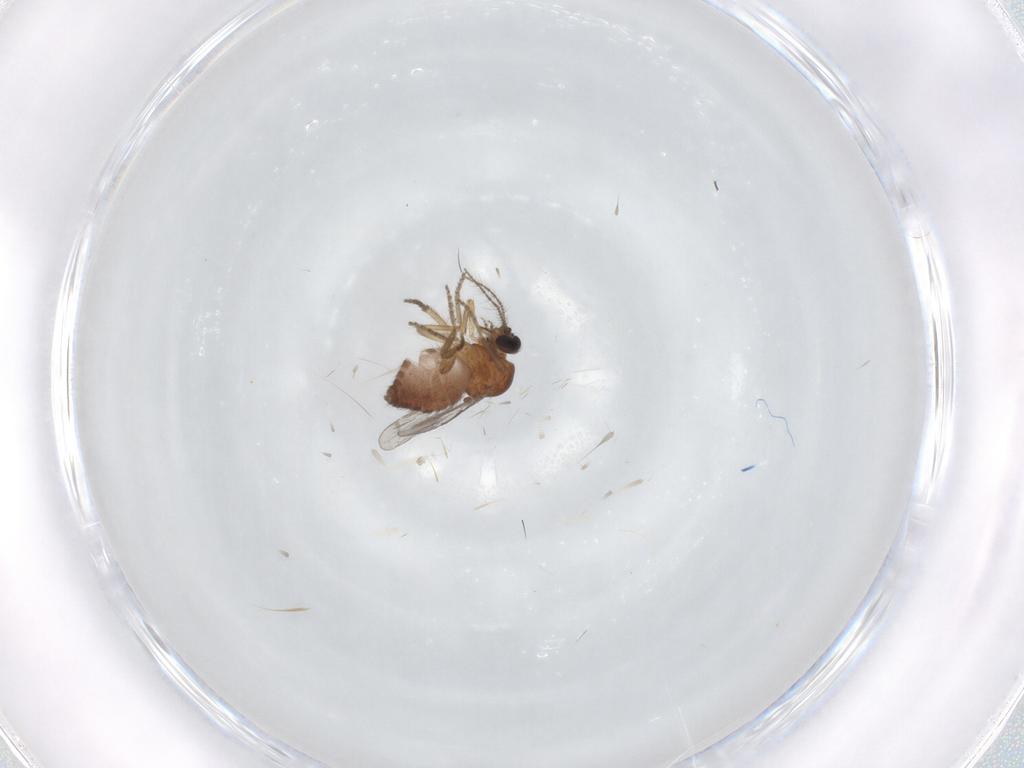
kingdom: Animalia
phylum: Arthropoda
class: Insecta
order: Diptera
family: Ceratopogonidae
